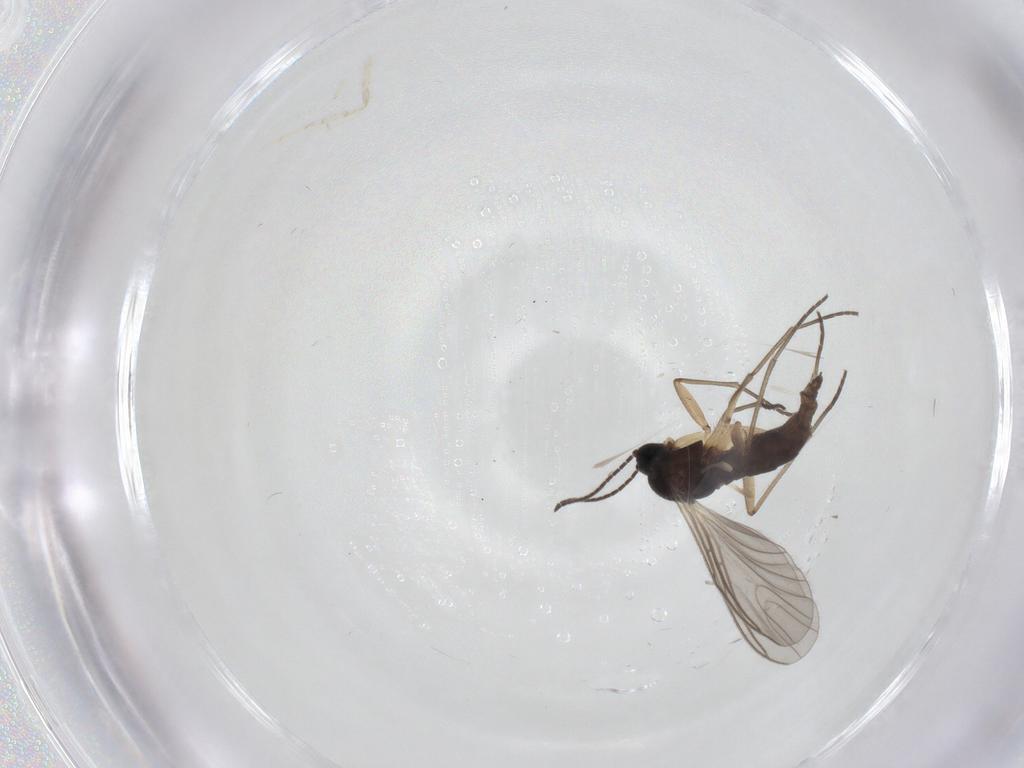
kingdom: Animalia
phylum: Arthropoda
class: Insecta
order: Diptera
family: Sciaridae
